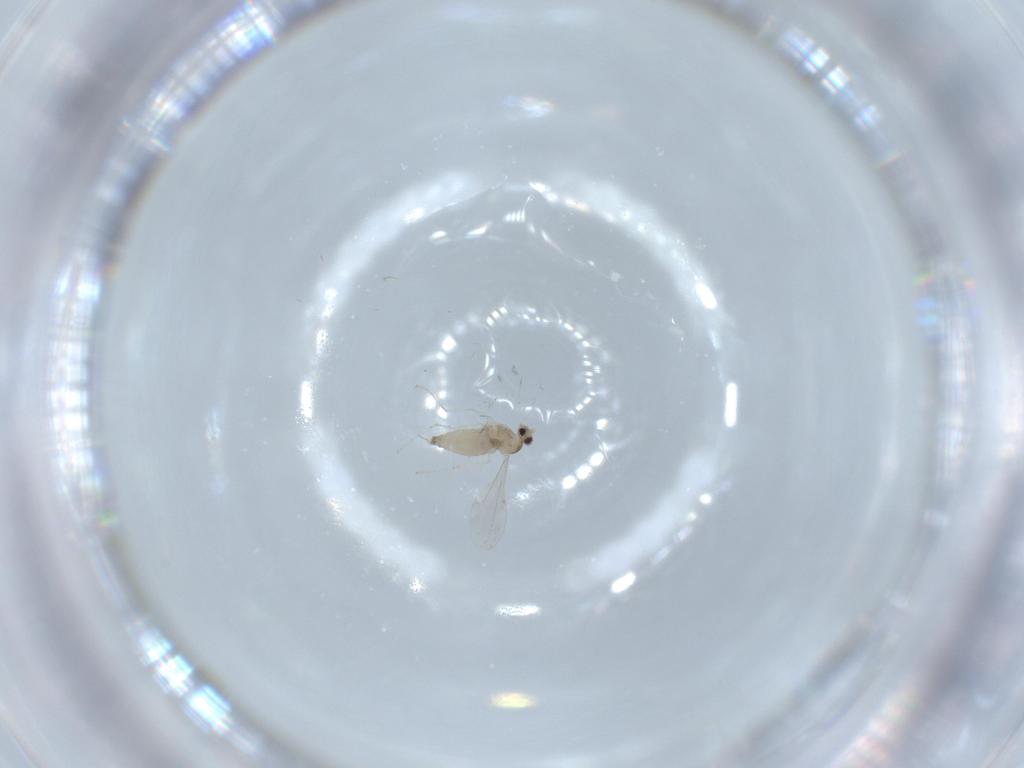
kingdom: Animalia
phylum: Arthropoda
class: Insecta
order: Diptera
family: Cecidomyiidae
